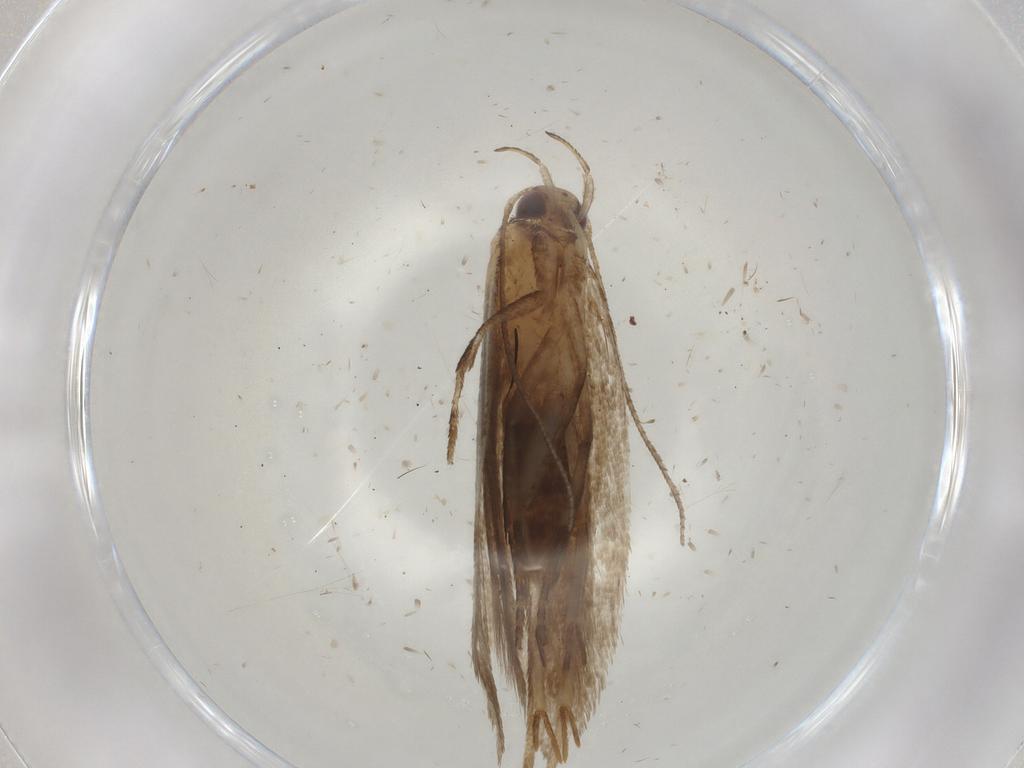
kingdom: Animalia
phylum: Arthropoda
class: Insecta
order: Lepidoptera
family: Gelechiidae
